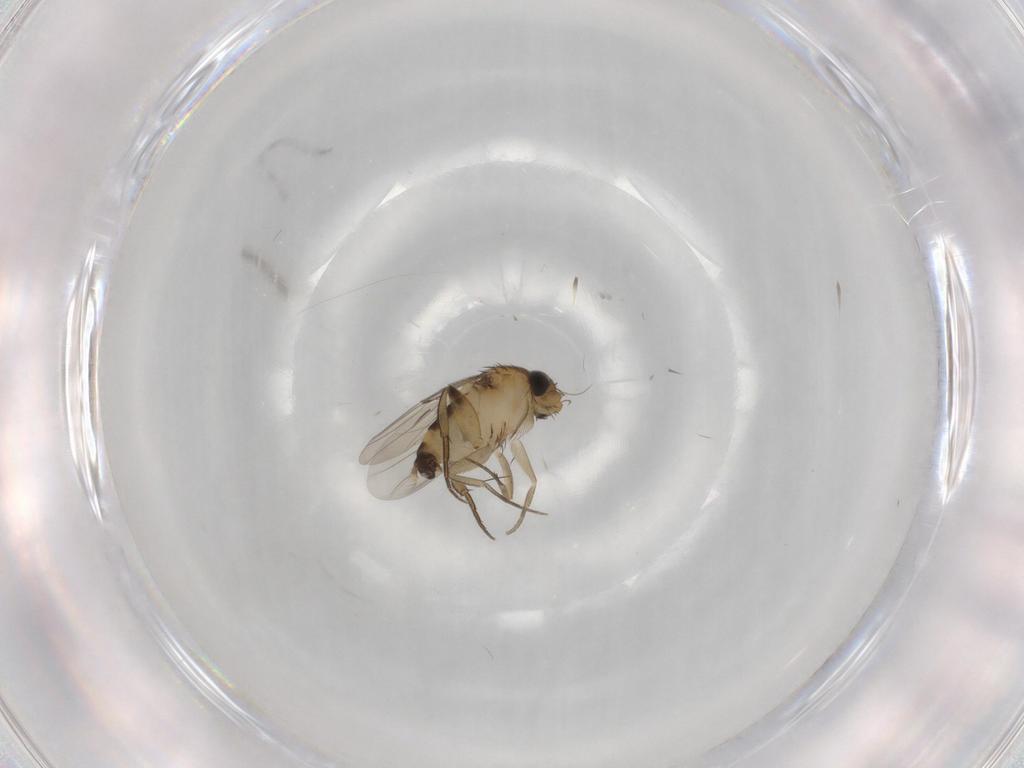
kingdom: Animalia
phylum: Arthropoda
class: Insecta
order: Diptera
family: Phoridae
